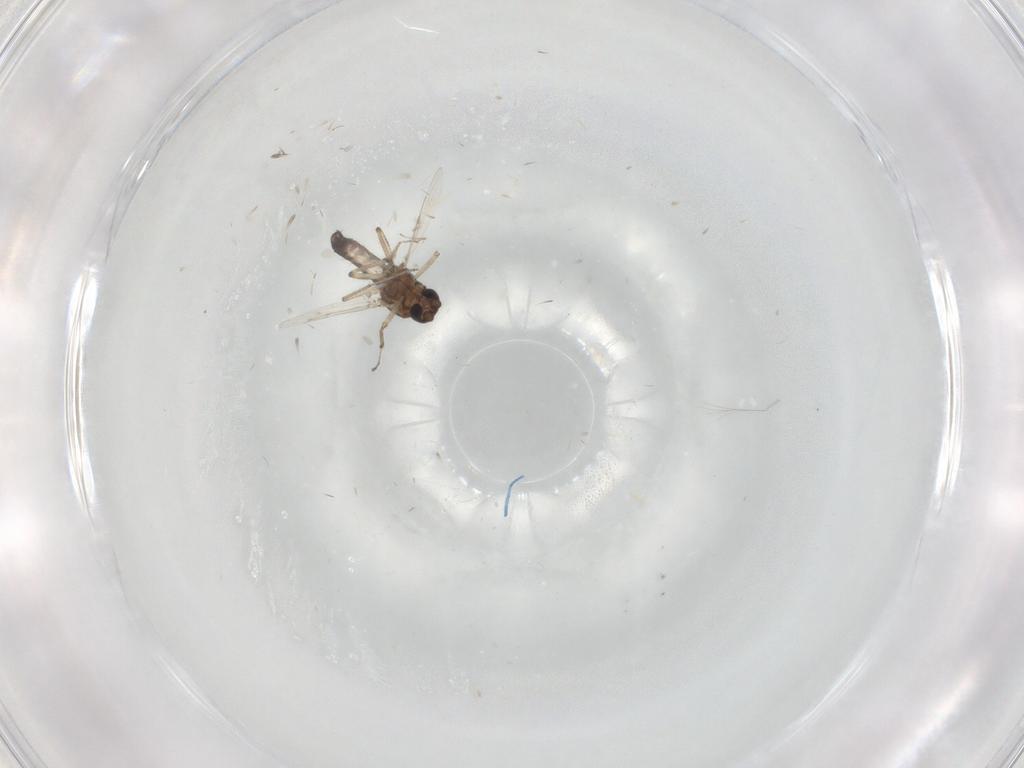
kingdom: Animalia
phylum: Arthropoda
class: Insecta
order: Diptera
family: Ceratopogonidae
